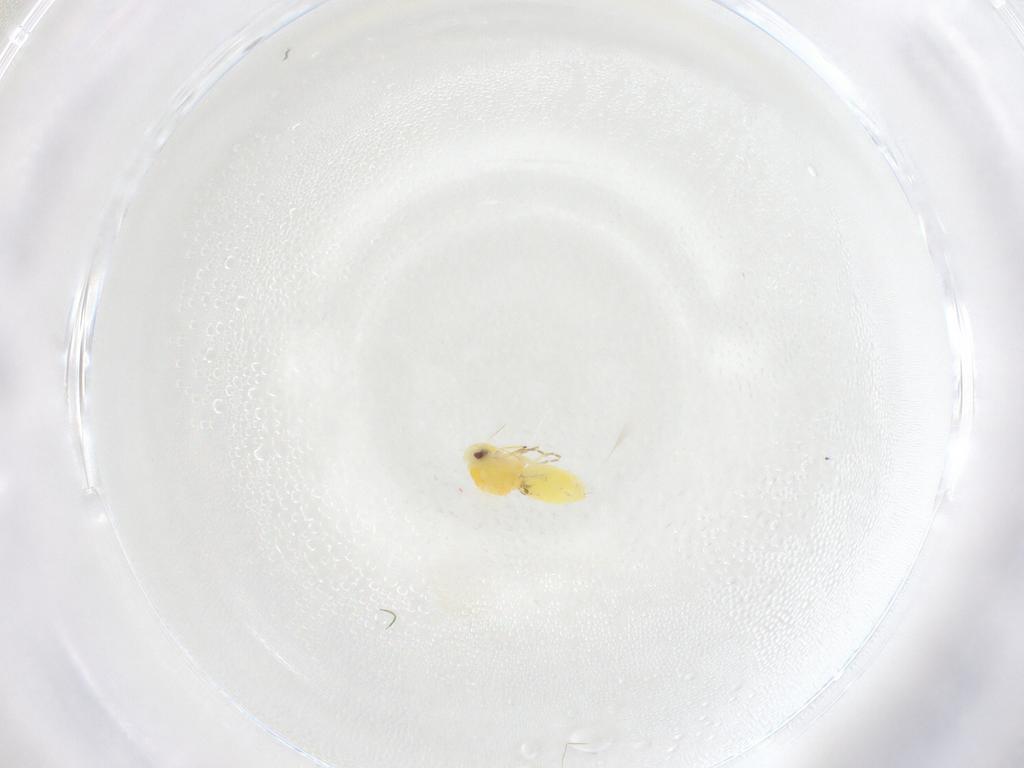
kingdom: Animalia
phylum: Arthropoda
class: Insecta
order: Hemiptera
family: Aleyrodidae
